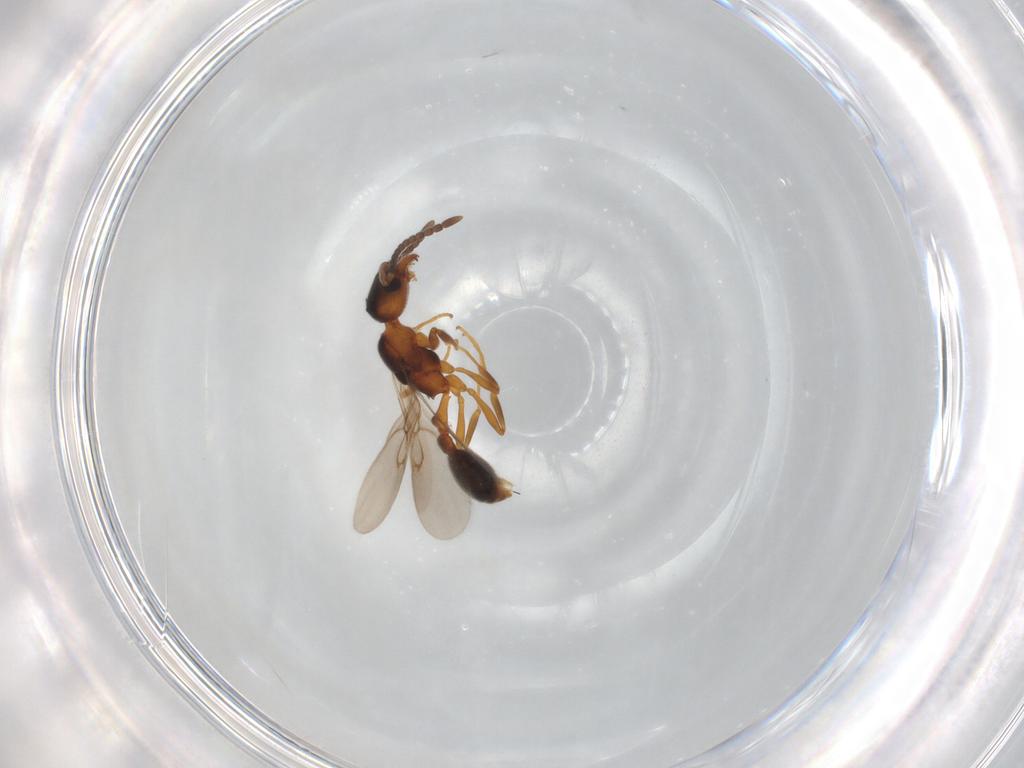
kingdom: Animalia
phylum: Arthropoda
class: Insecta
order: Hymenoptera
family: Formicidae
